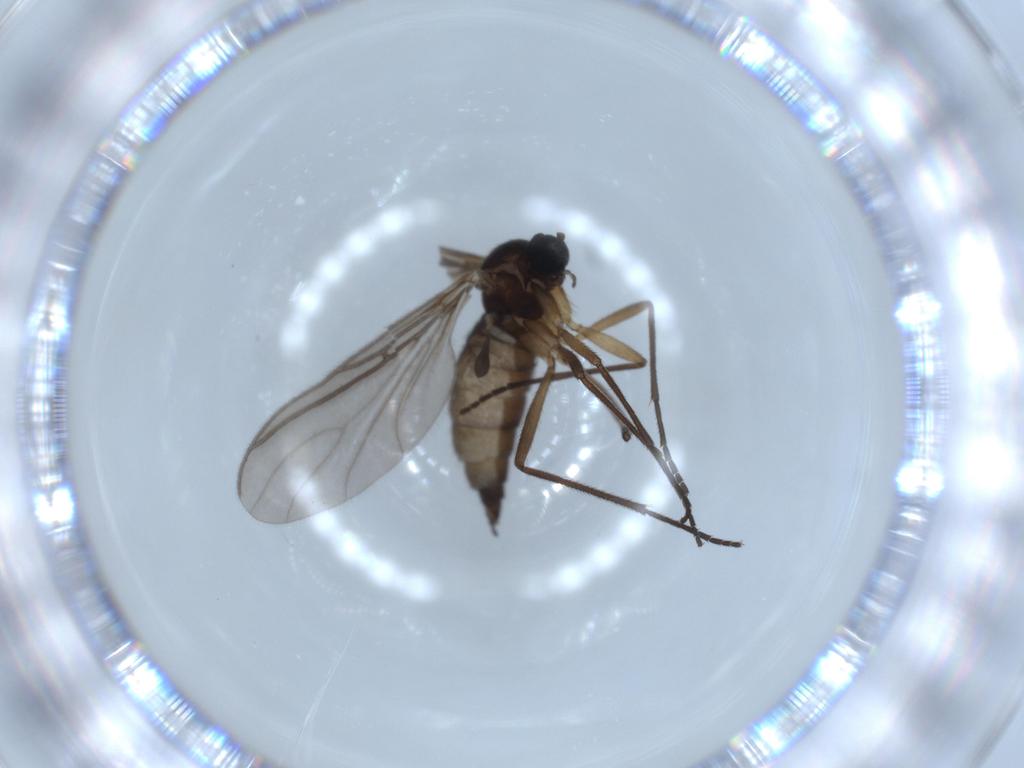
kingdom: Animalia
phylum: Arthropoda
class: Insecta
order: Diptera
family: Sciaridae
